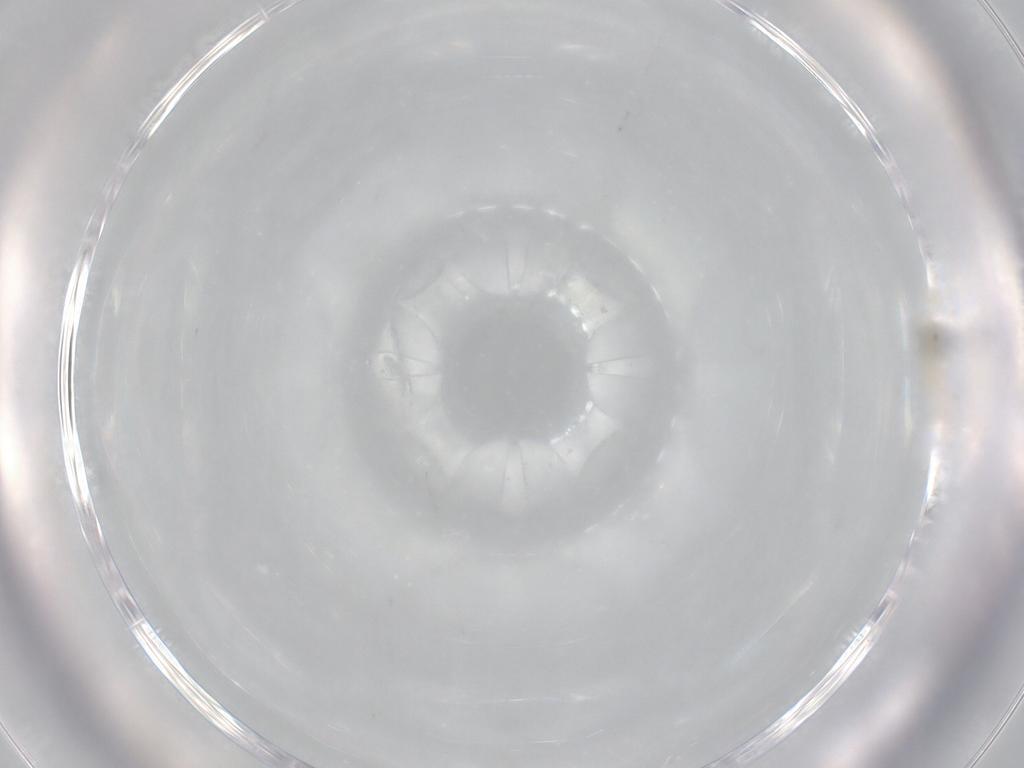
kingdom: Animalia
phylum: Arthropoda
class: Insecta
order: Diptera
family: Cecidomyiidae
